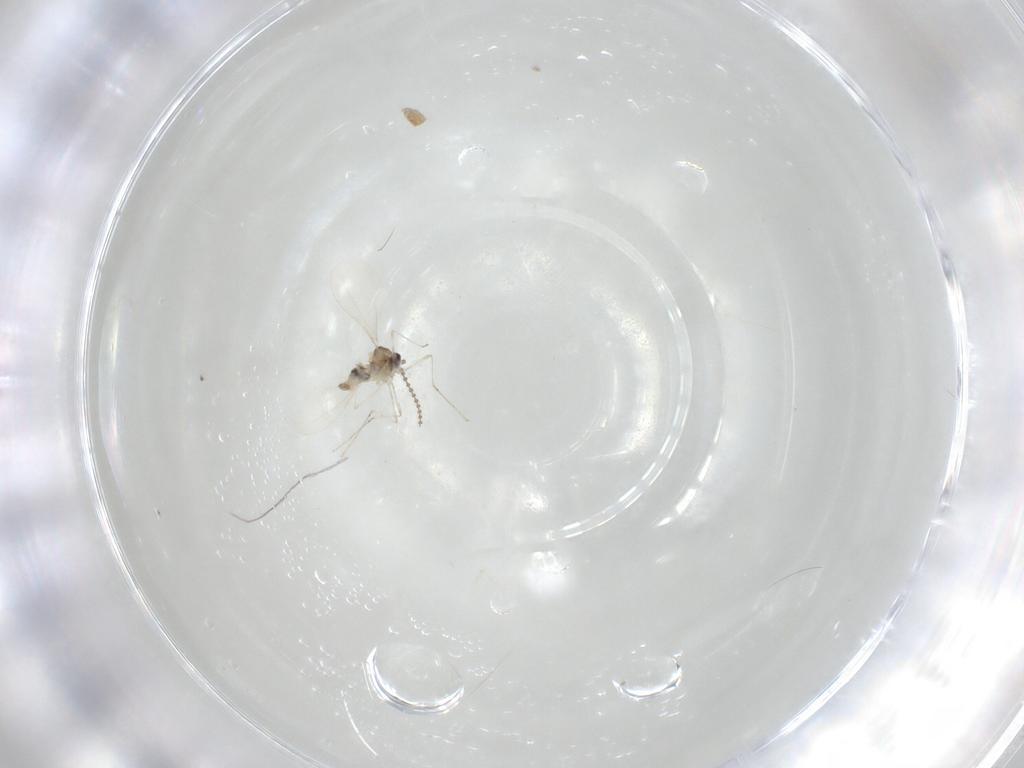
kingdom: Animalia
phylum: Arthropoda
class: Insecta
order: Diptera
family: Cecidomyiidae
